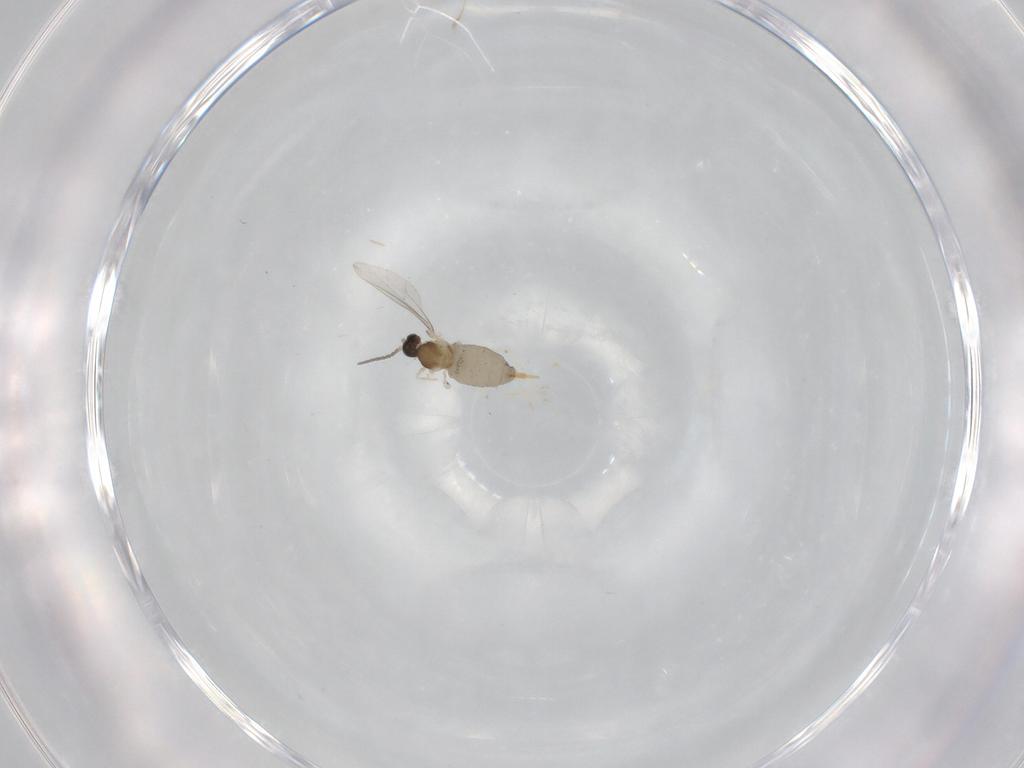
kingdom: Animalia
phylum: Arthropoda
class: Insecta
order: Diptera
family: Cecidomyiidae
